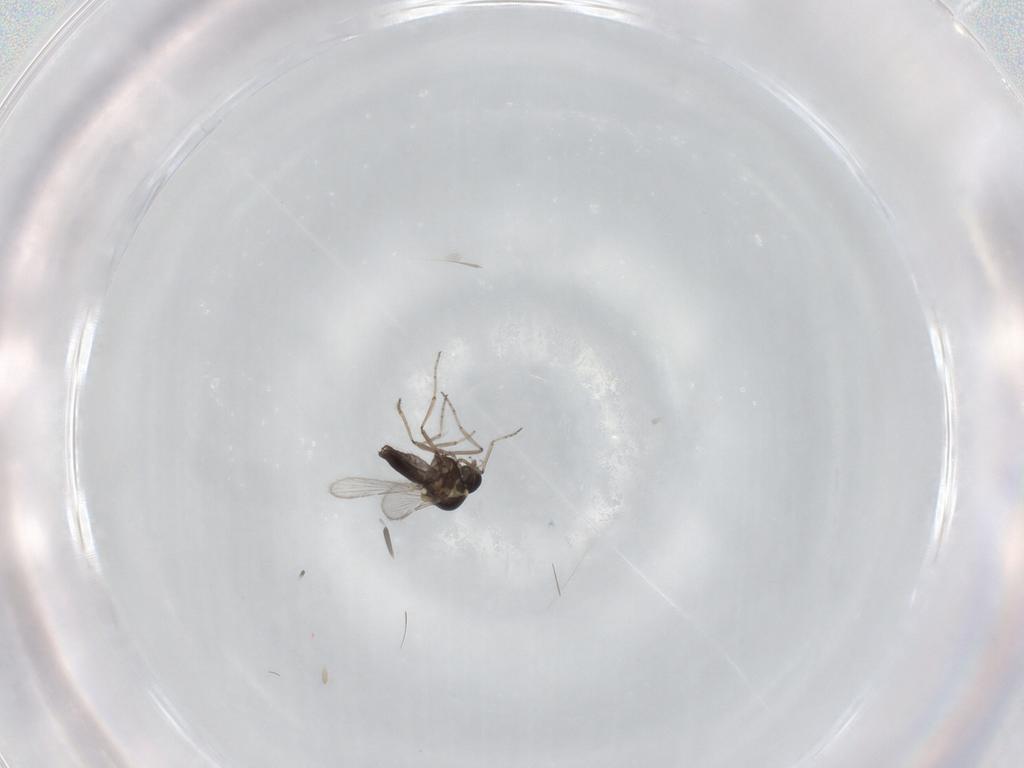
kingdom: Animalia
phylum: Arthropoda
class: Insecta
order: Diptera
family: Ceratopogonidae
